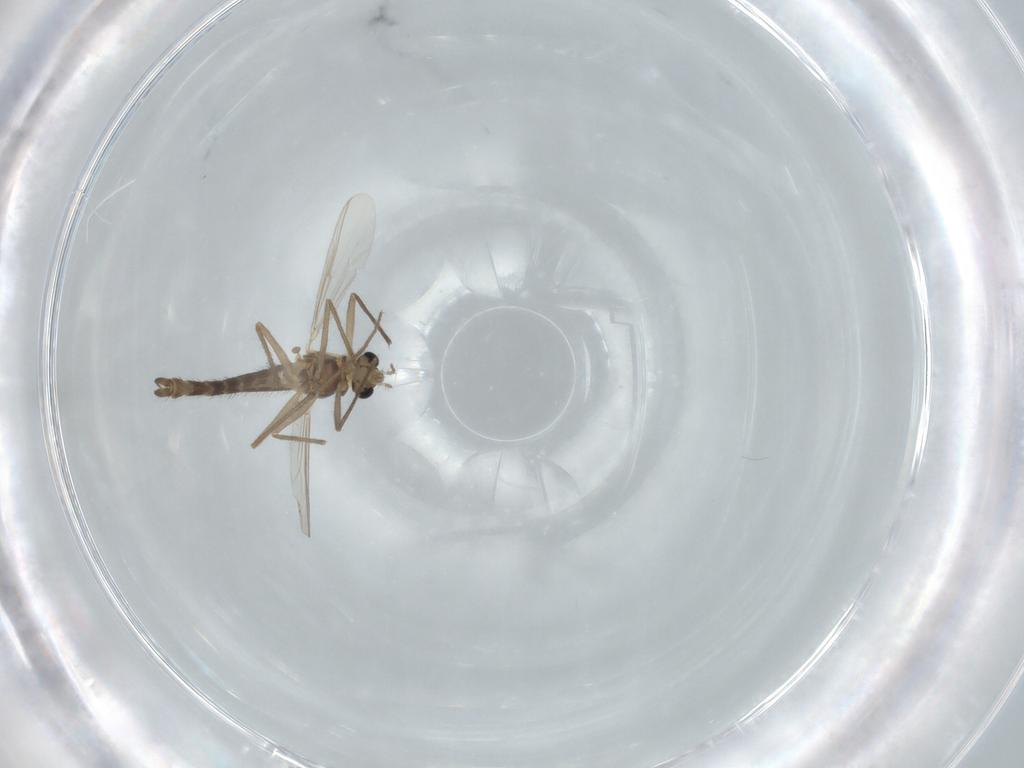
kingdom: Animalia
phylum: Arthropoda
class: Insecta
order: Diptera
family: Chironomidae
